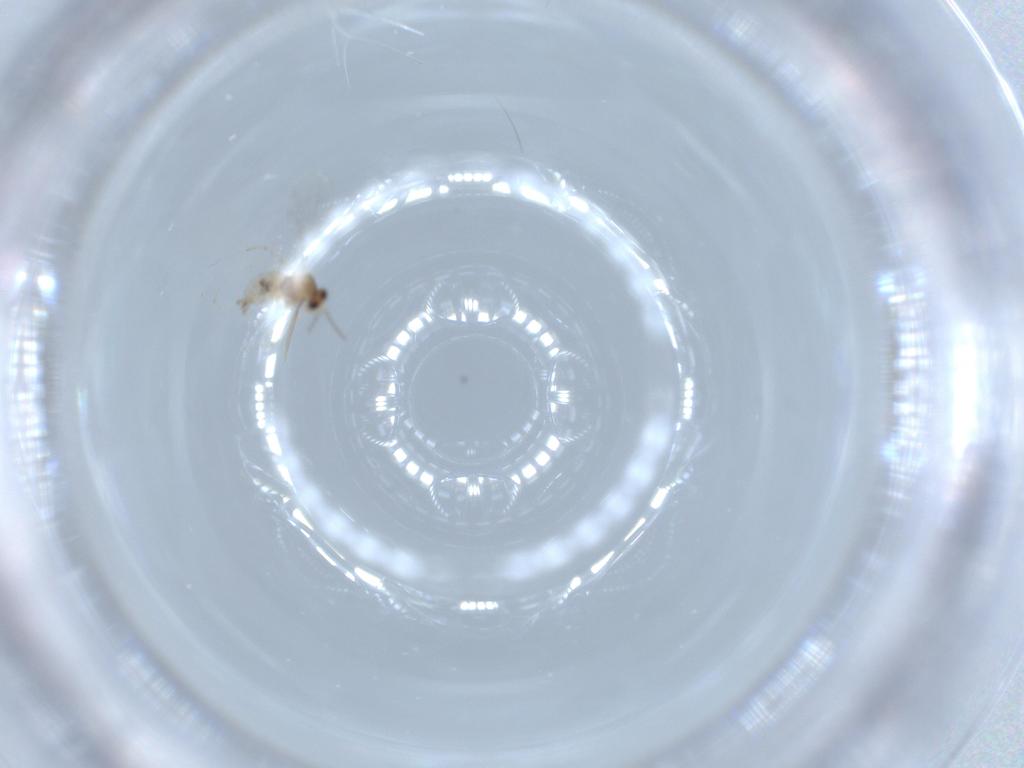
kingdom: Animalia
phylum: Arthropoda
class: Insecta
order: Diptera
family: Cecidomyiidae
